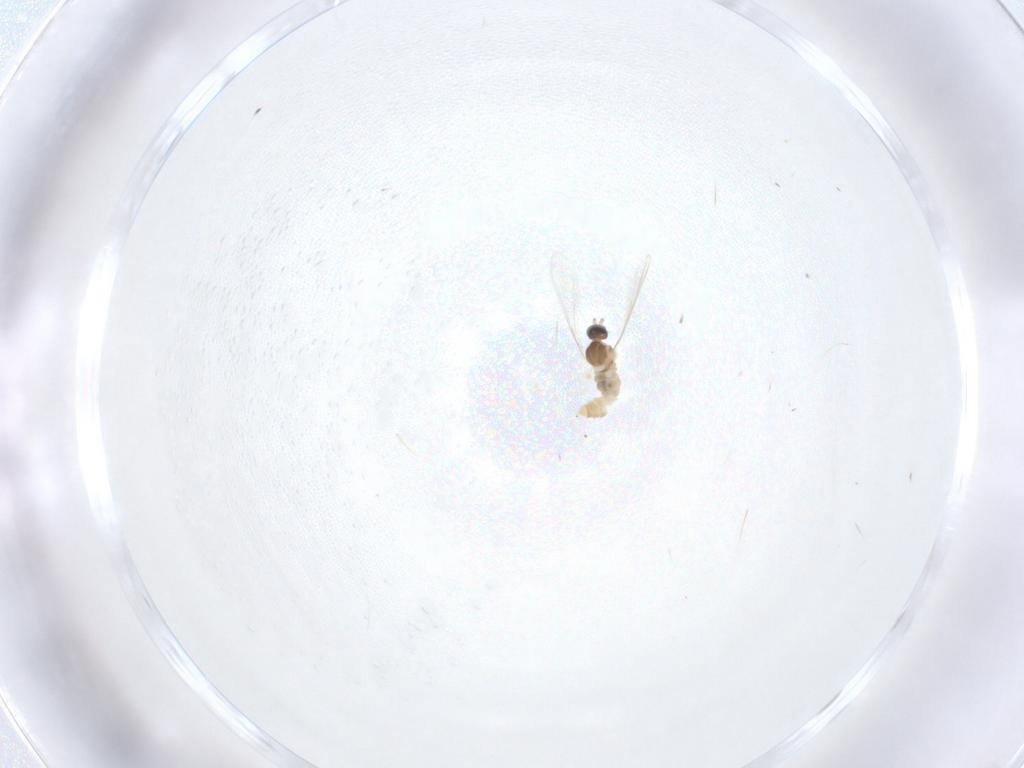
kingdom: Animalia
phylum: Arthropoda
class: Insecta
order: Diptera
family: Cecidomyiidae
